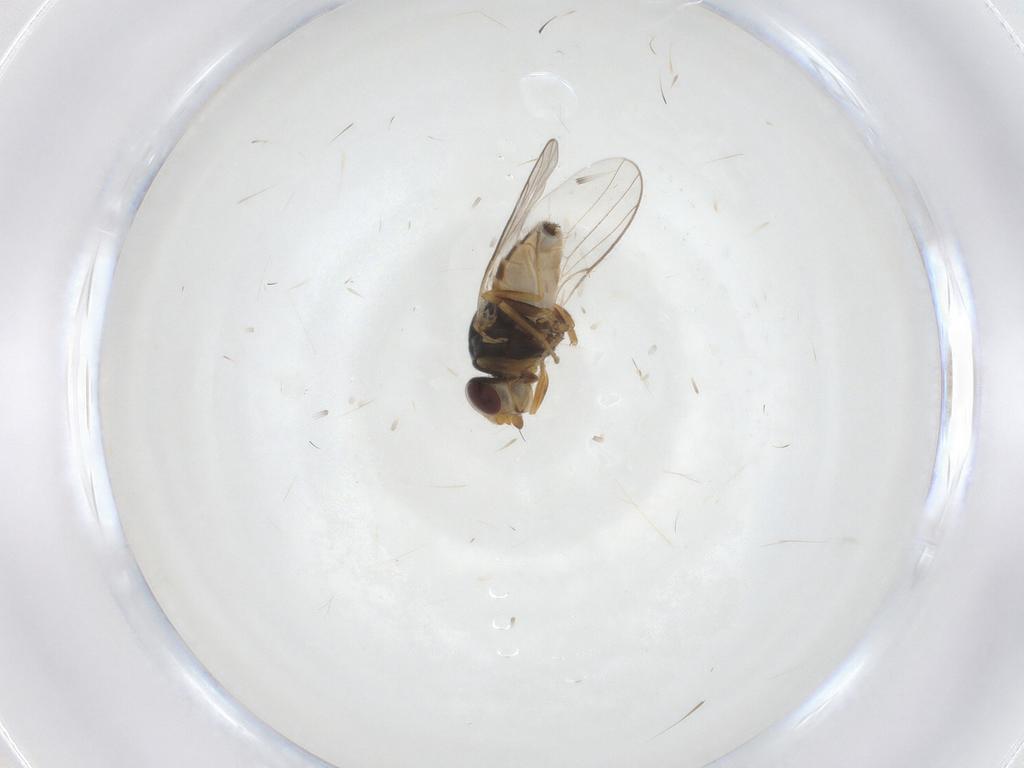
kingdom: Animalia
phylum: Arthropoda
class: Insecta
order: Diptera
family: Chloropidae
